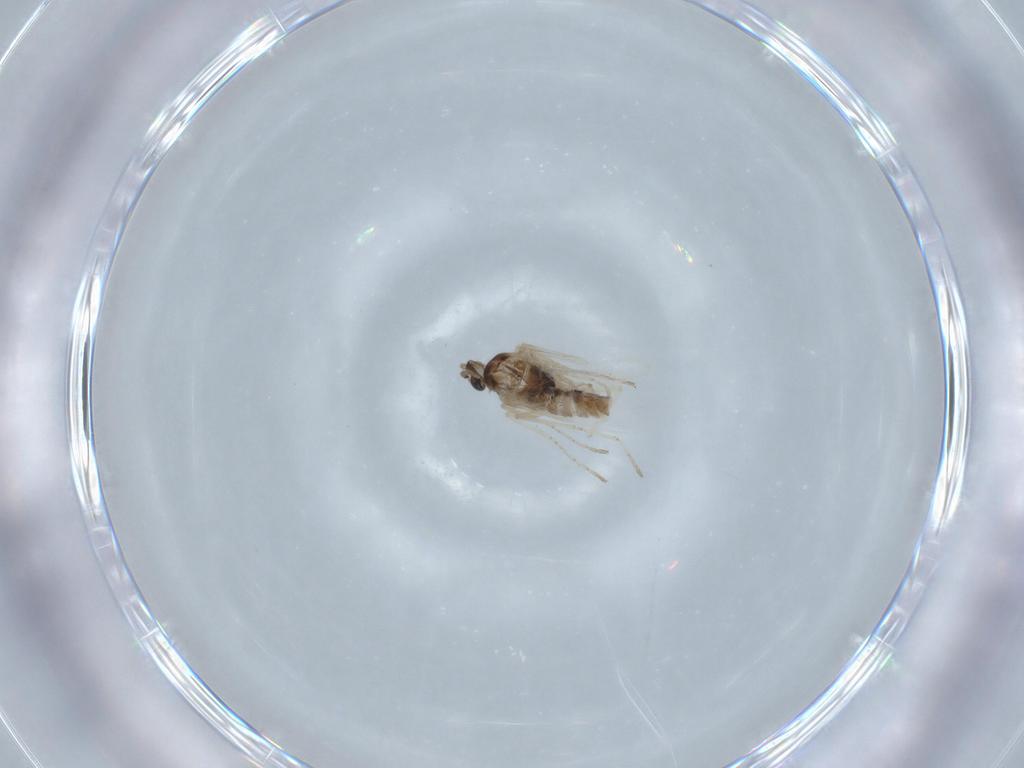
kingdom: Animalia
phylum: Arthropoda
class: Insecta
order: Diptera
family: Cecidomyiidae
